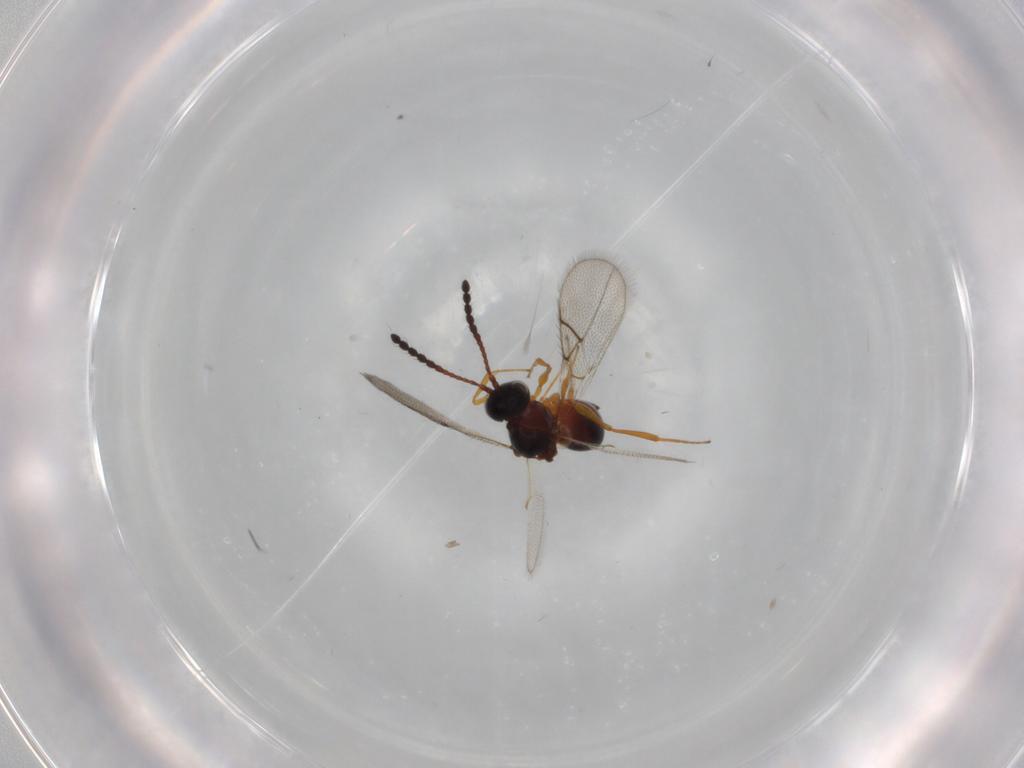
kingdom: Animalia
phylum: Arthropoda
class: Insecta
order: Hymenoptera
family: Figitidae
